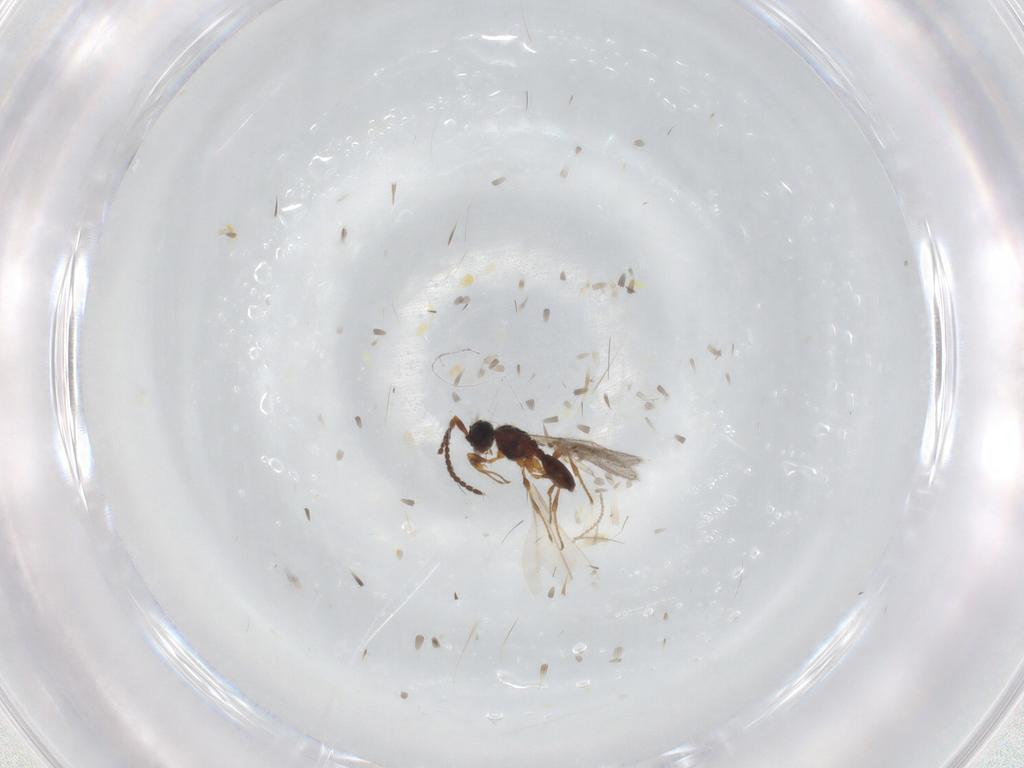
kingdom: Animalia
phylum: Arthropoda
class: Insecta
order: Hymenoptera
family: Diapriidae
